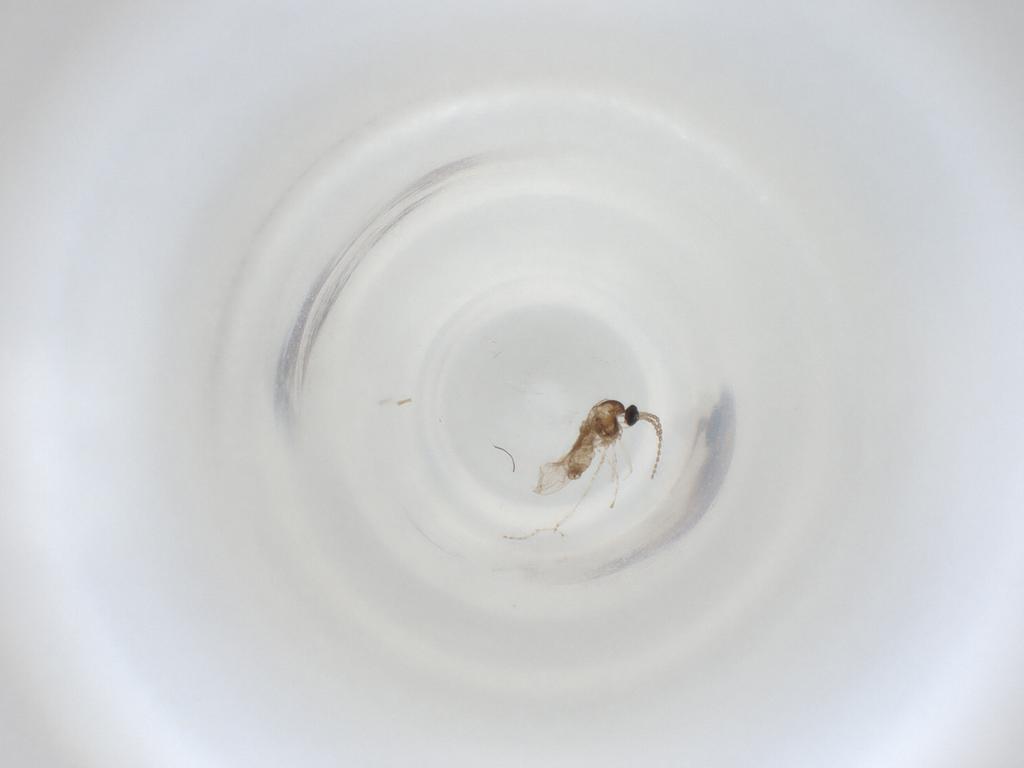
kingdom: Animalia
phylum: Arthropoda
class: Insecta
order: Diptera
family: Cecidomyiidae
